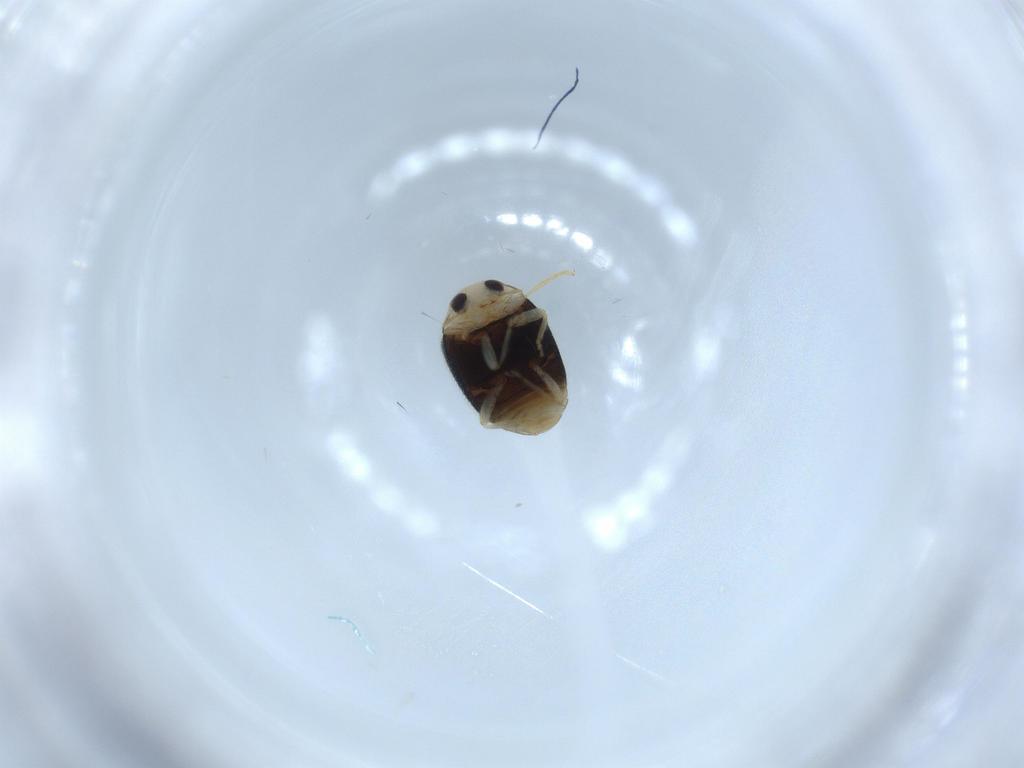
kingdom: Animalia
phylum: Arthropoda
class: Insecta
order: Coleoptera
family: Coccinellidae
